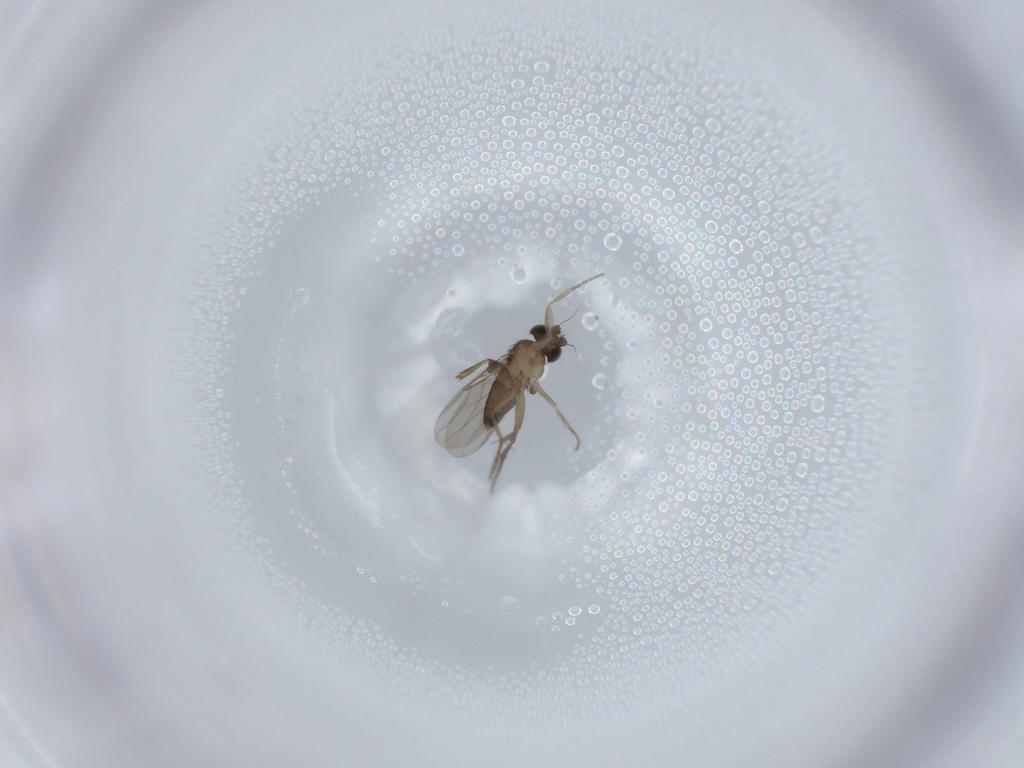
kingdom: Animalia
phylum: Arthropoda
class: Insecta
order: Diptera
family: Phoridae
